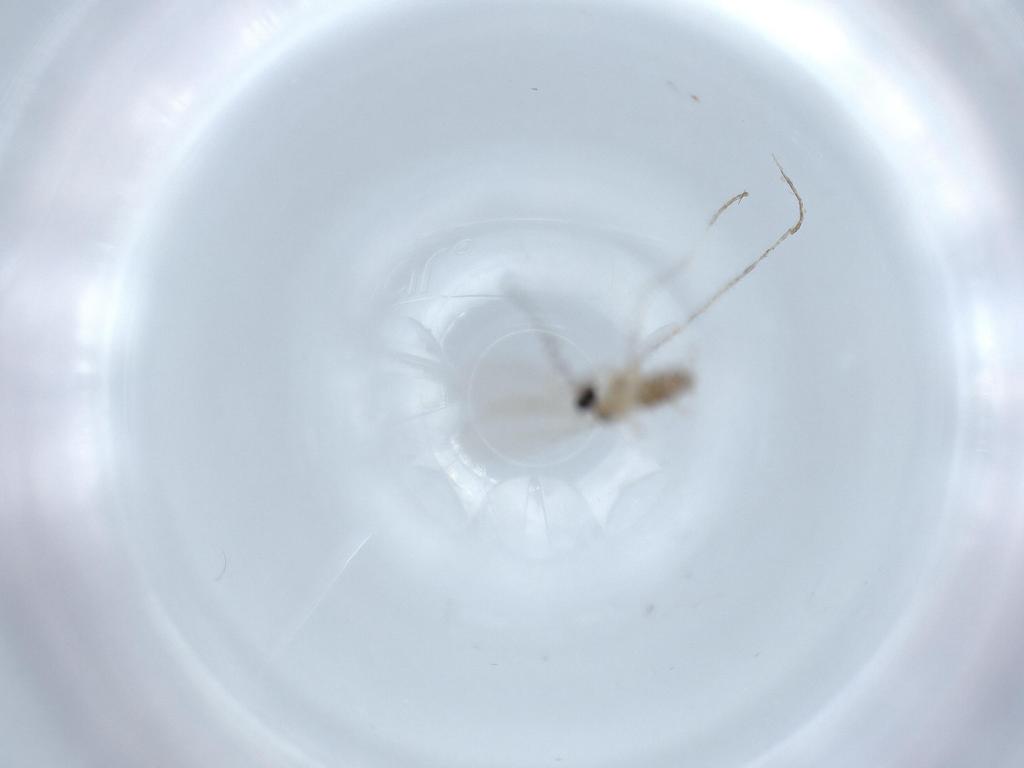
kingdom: Animalia
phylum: Arthropoda
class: Insecta
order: Diptera
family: Cecidomyiidae
